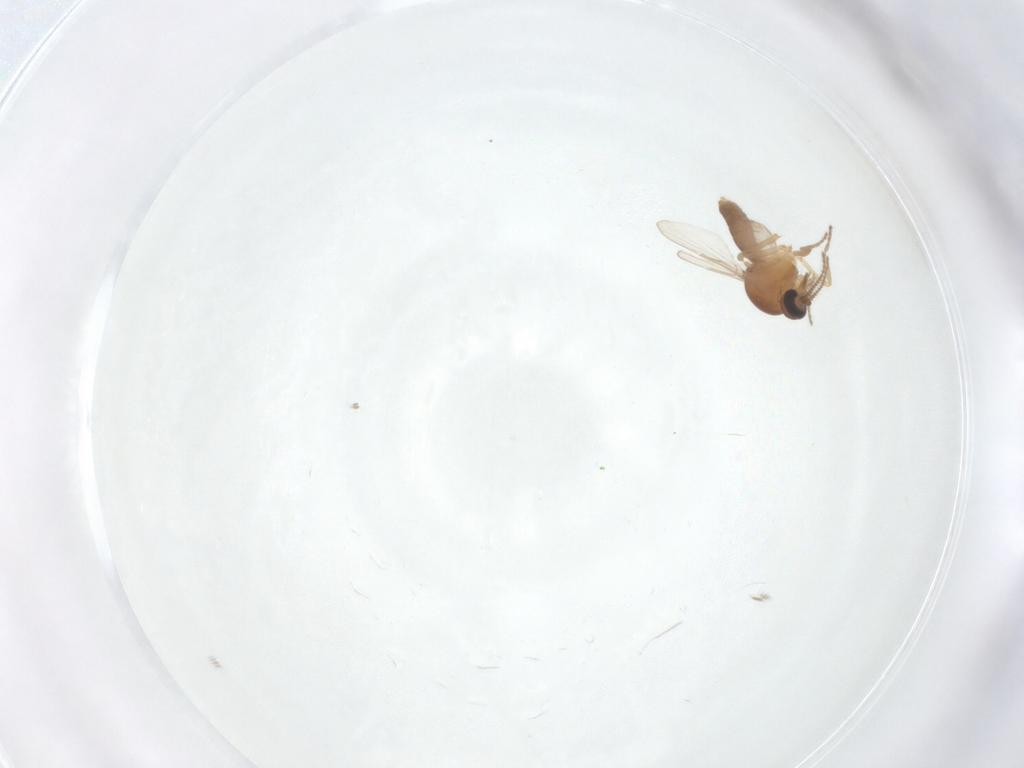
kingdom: Animalia
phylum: Arthropoda
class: Insecta
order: Diptera
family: Ceratopogonidae
